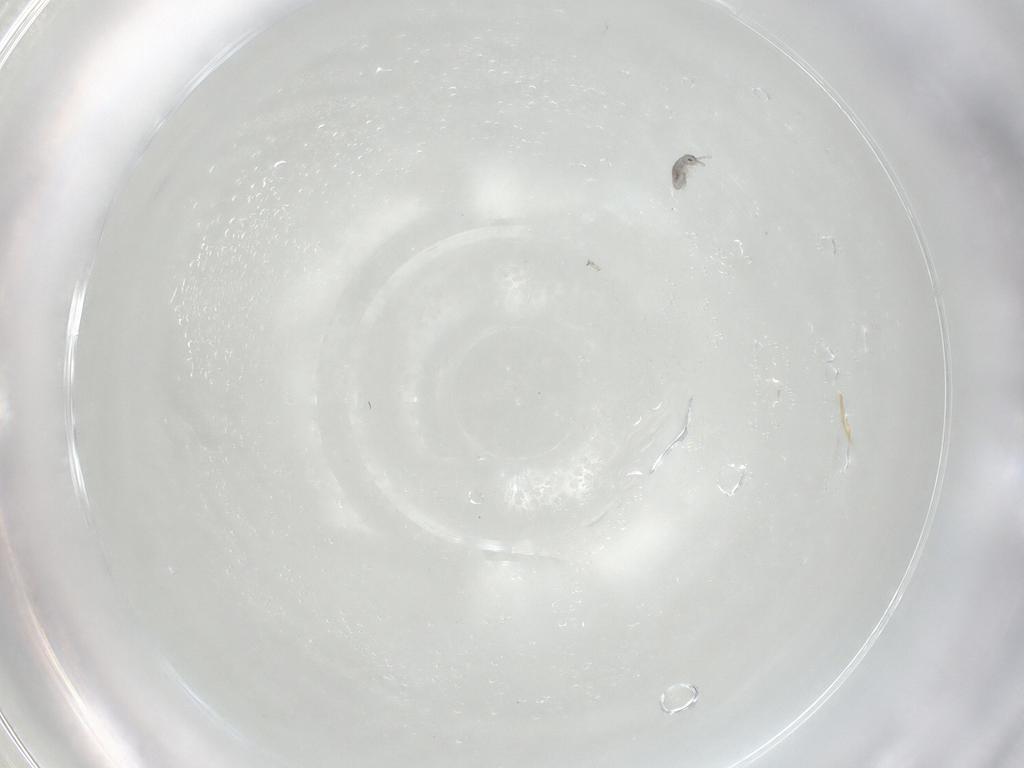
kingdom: Animalia
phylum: Arthropoda
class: Collembola
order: Entomobryomorpha
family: Isotomidae
